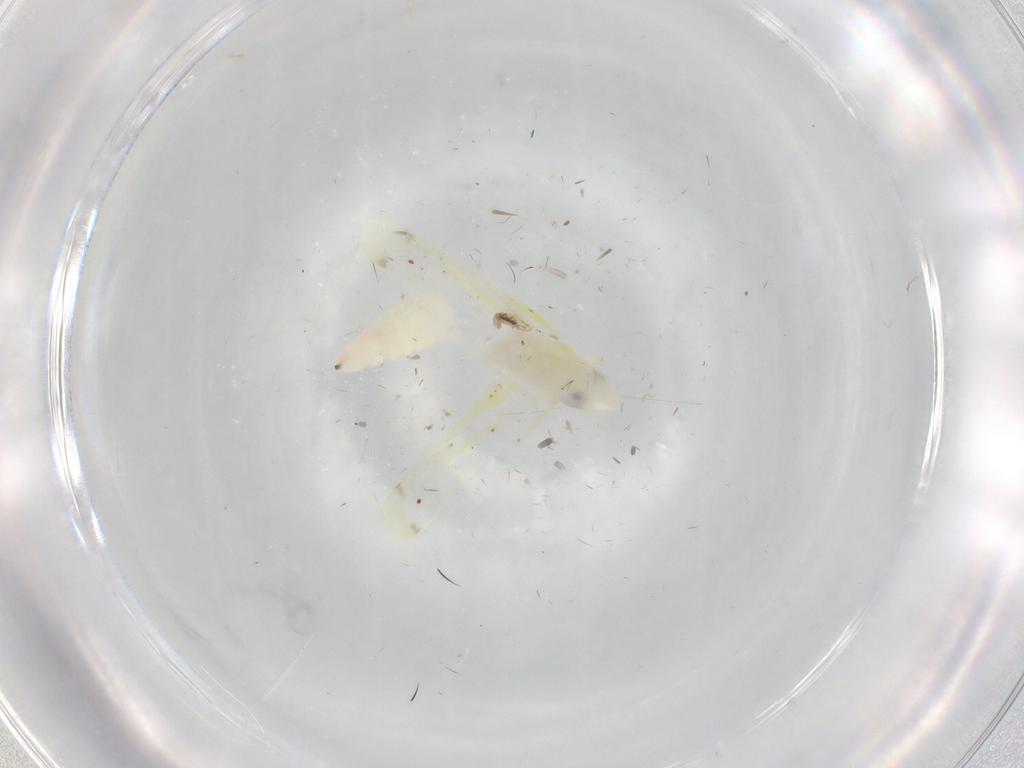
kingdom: Animalia
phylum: Arthropoda
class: Insecta
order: Hemiptera
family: Cicadellidae
